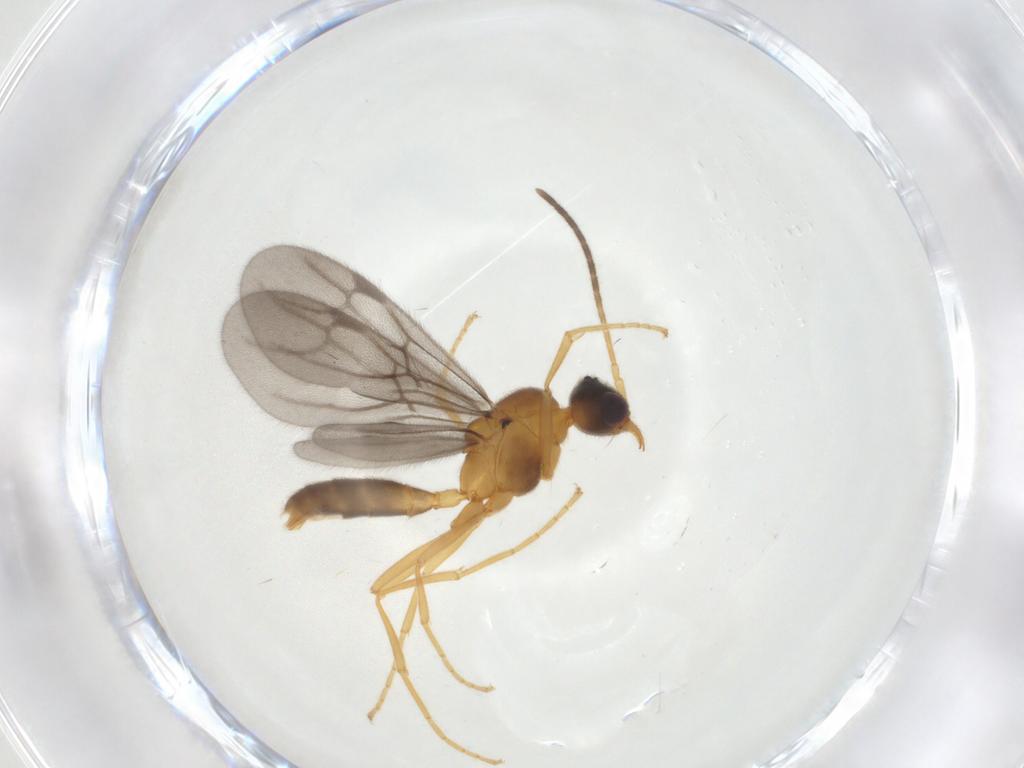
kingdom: Animalia
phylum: Arthropoda
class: Insecta
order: Hymenoptera
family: Formicidae
